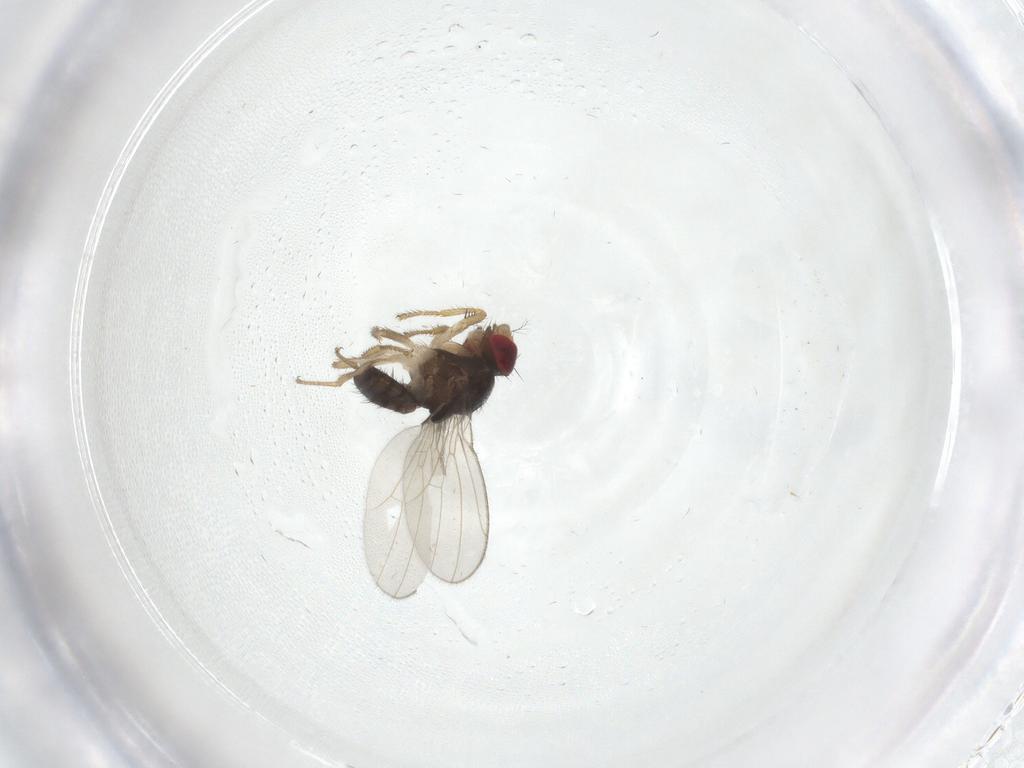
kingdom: Animalia
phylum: Arthropoda
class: Insecta
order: Diptera
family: Drosophilidae
